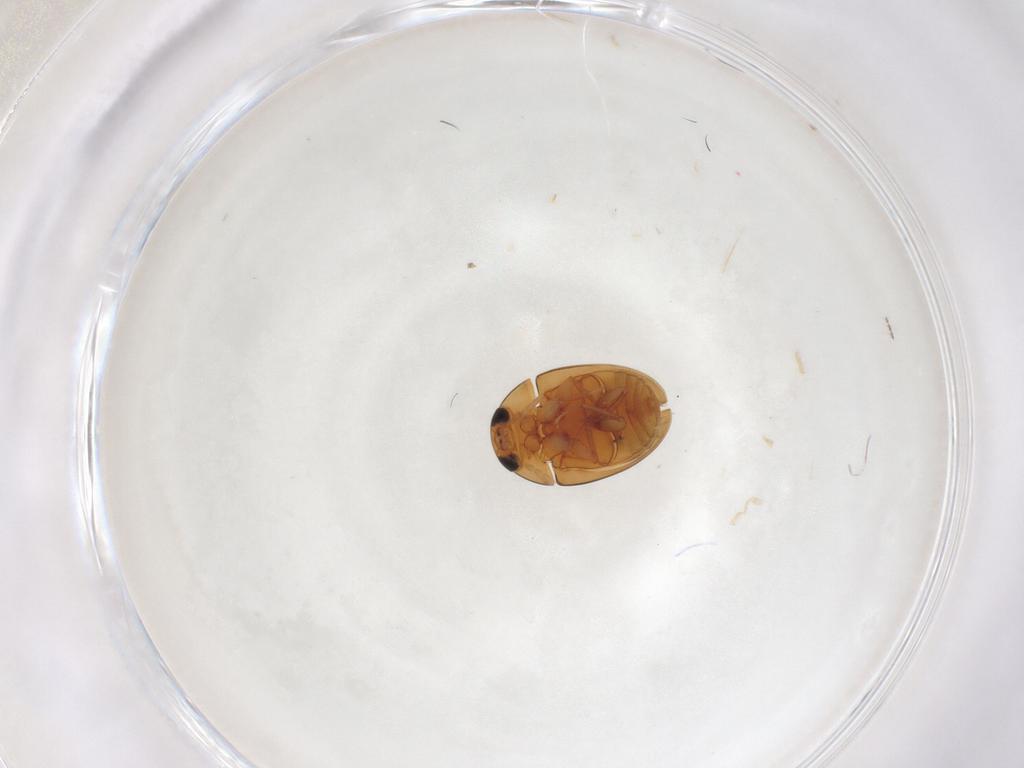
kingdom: Animalia
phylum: Arthropoda
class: Insecta
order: Coleoptera
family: Phalacridae
